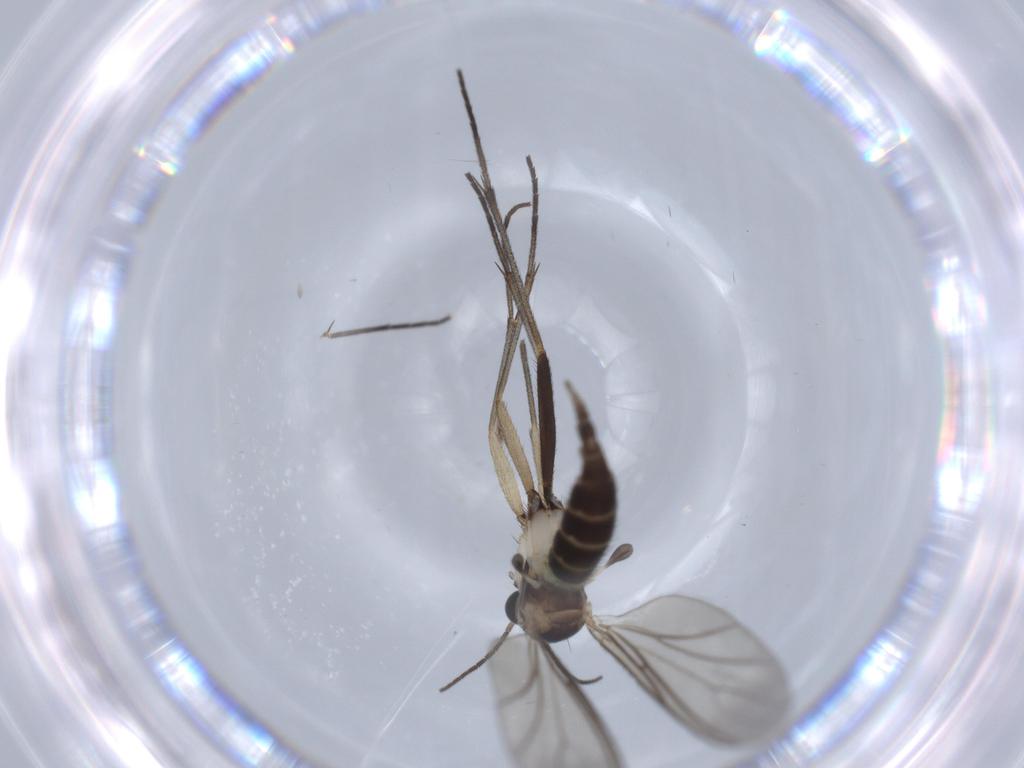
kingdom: Animalia
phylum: Arthropoda
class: Insecta
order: Diptera
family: Sciaridae
